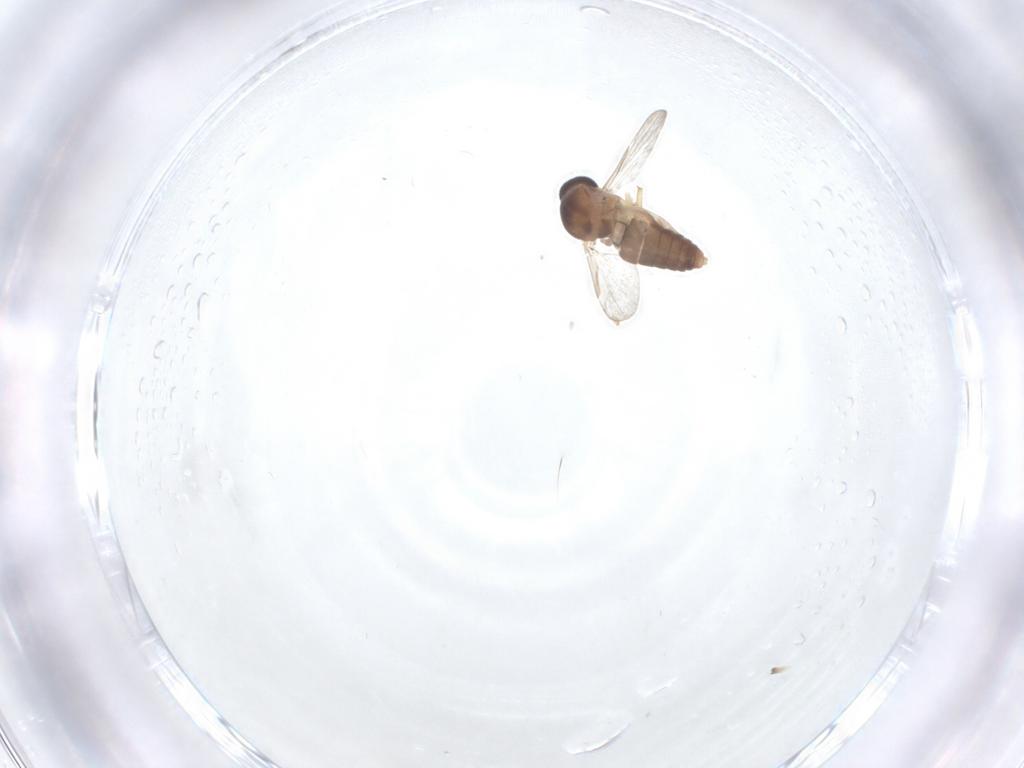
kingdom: Animalia
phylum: Arthropoda
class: Insecta
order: Diptera
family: Ceratopogonidae
